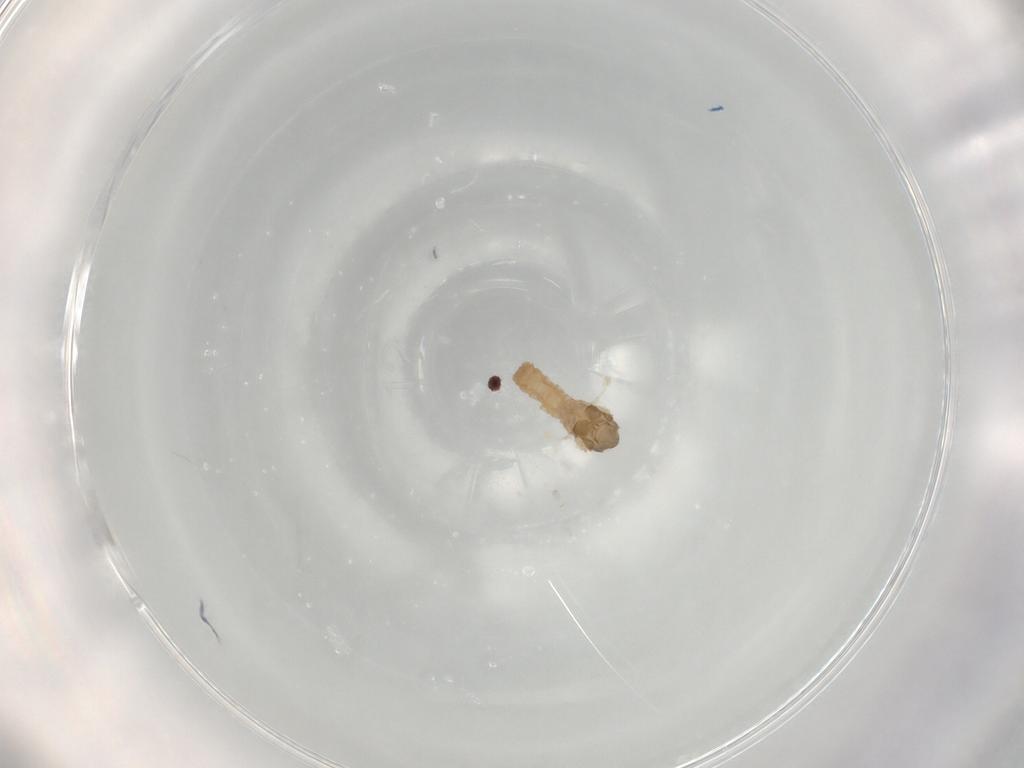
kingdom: Animalia
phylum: Arthropoda
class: Insecta
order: Diptera
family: Cecidomyiidae
